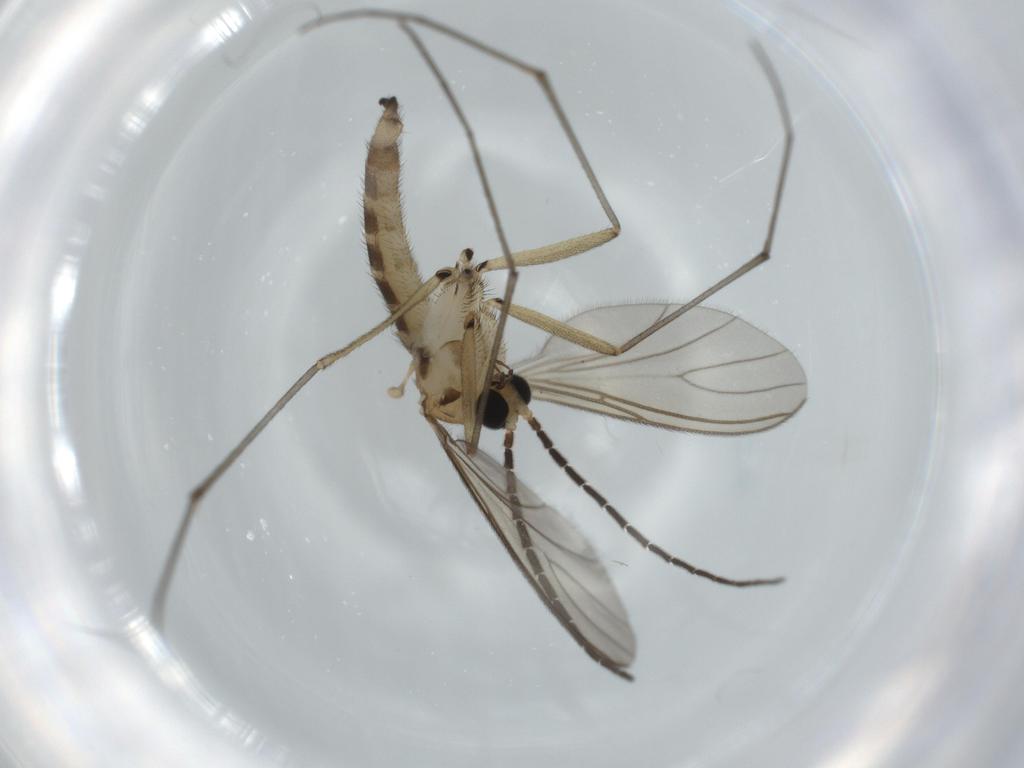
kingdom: Animalia
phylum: Arthropoda
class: Insecta
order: Diptera
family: Sciaridae
